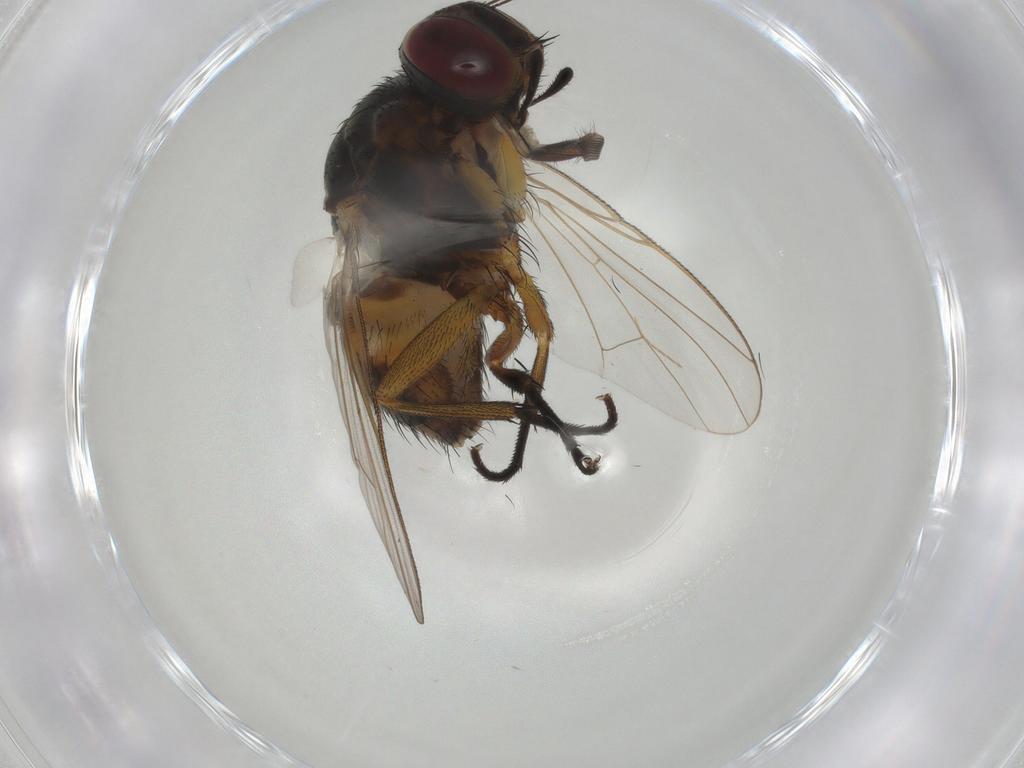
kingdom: Animalia
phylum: Arthropoda
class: Insecta
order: Diptera
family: Muscidae
